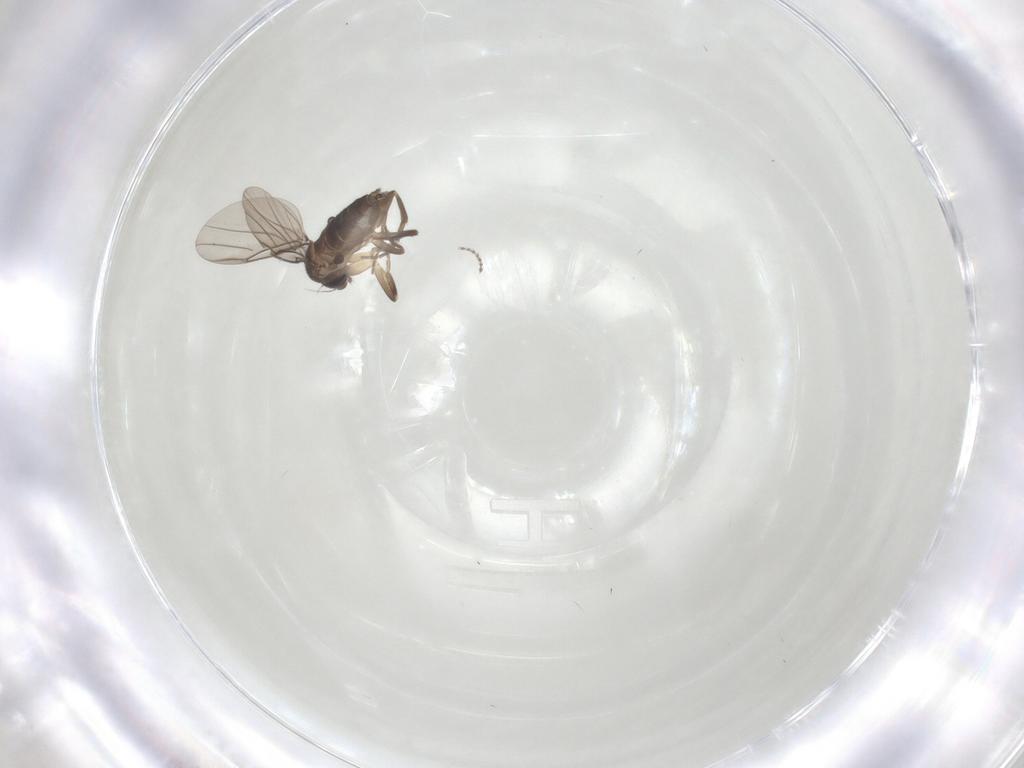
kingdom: Animalia
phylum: Arthropoda
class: Insecta
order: Diptera
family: Phoridae
